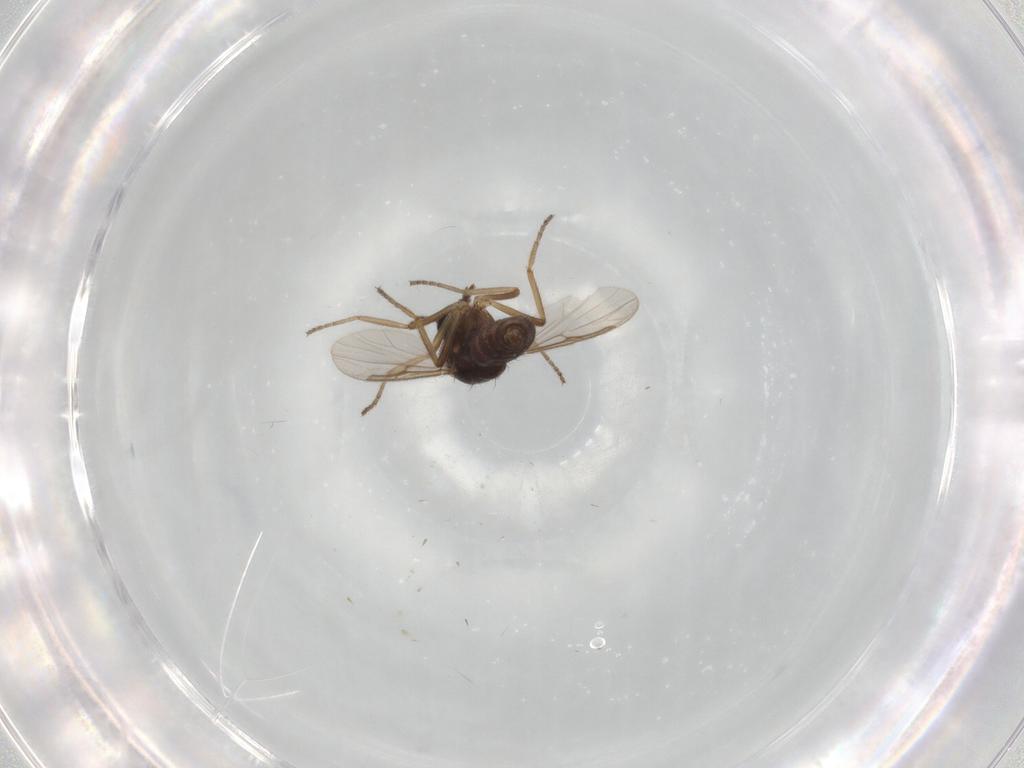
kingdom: Animalia
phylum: Arthropoda
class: Insecta
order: Diptera
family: Ceratopogonidae
